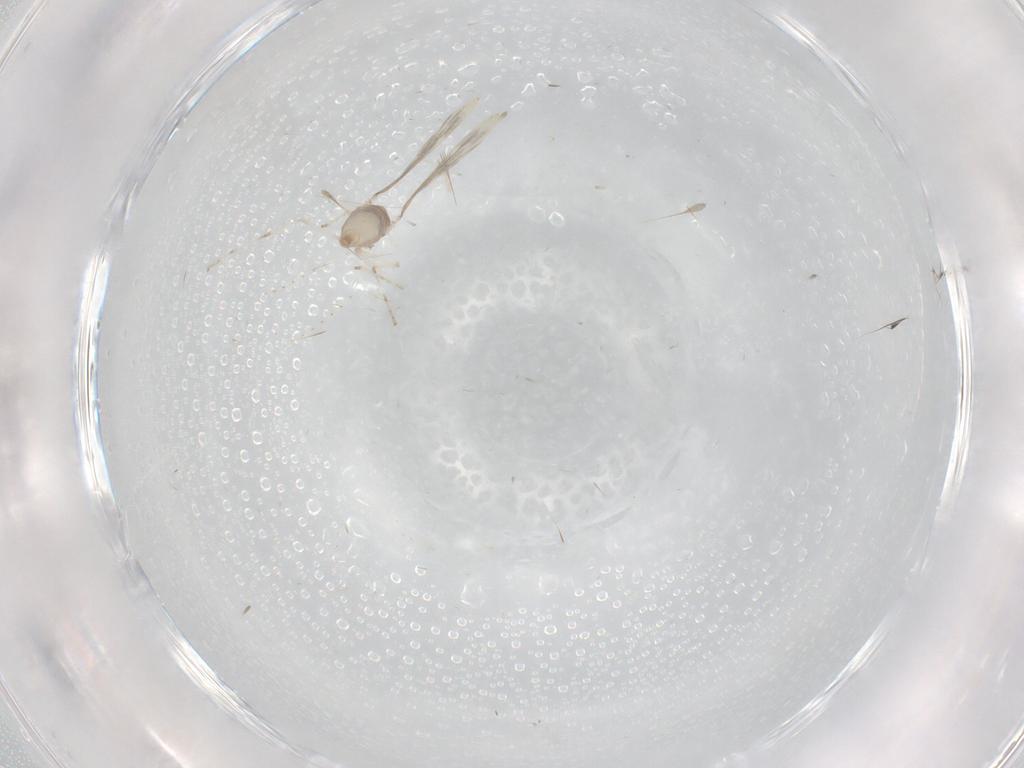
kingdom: Animalia
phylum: Arthropoda
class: Insecta
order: Diptera
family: Cecidomyiidae
